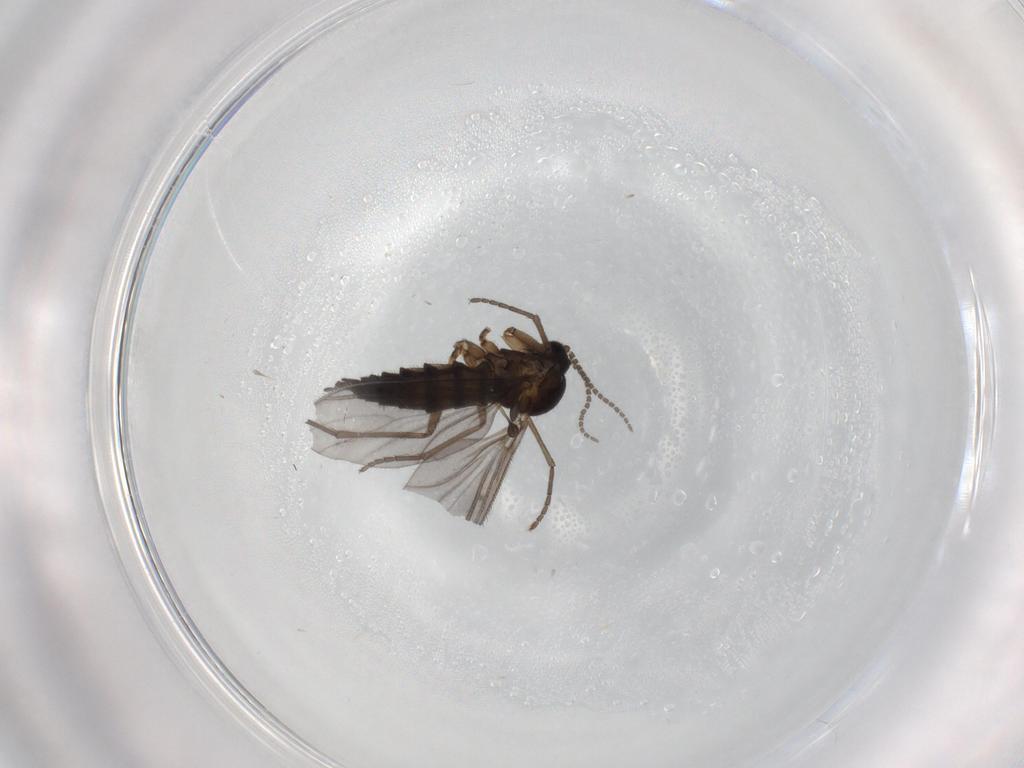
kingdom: Animalia
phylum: Arthropoda
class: Insecta
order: Diptera
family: Sciaridae
